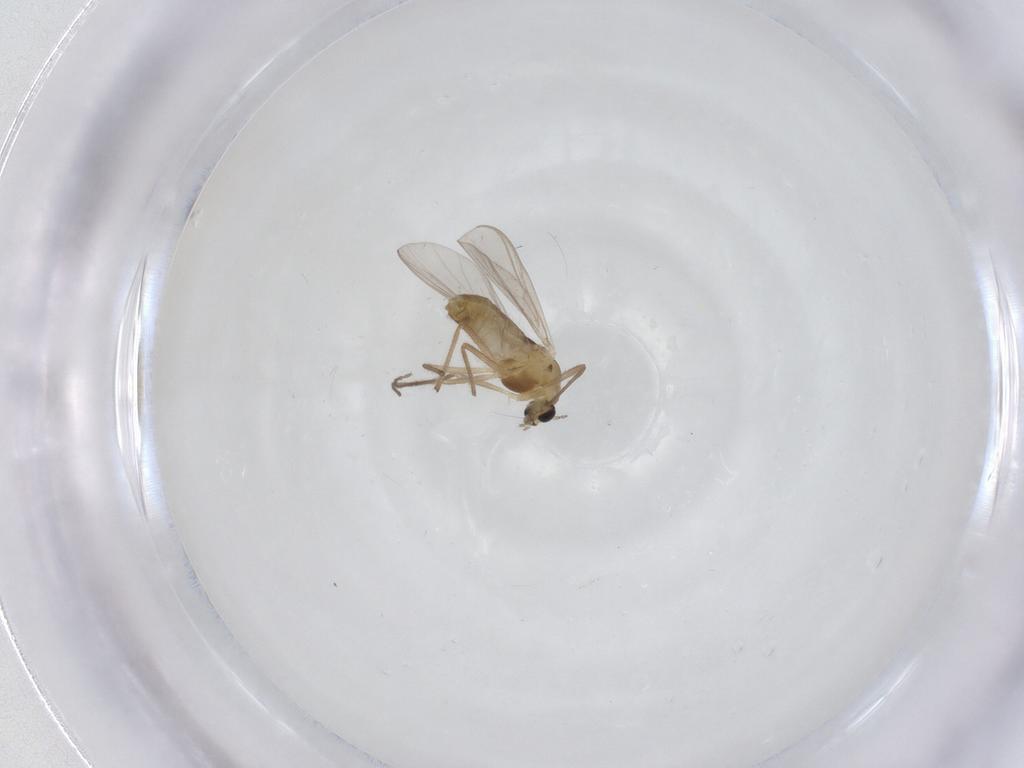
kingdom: Animalia
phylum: Arthropoda
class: Insecta
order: Diptera
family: Chironomidae
